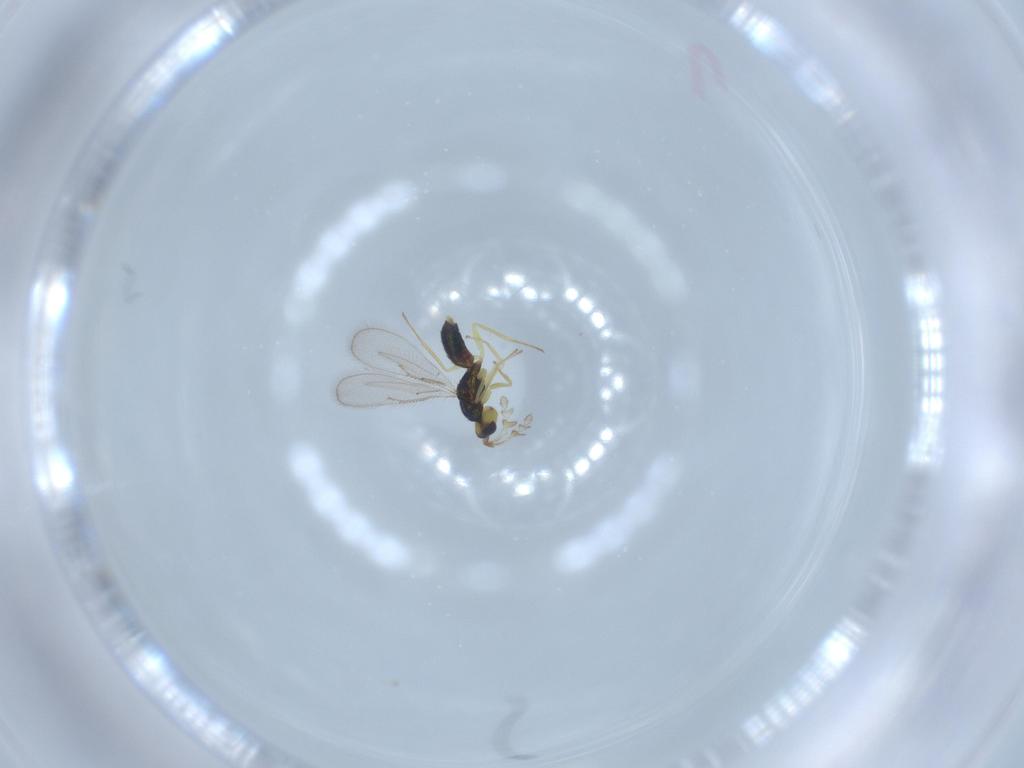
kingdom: Animalia
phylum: Arthropoda
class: Insecta
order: Hymenoptera
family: Eulophidae
